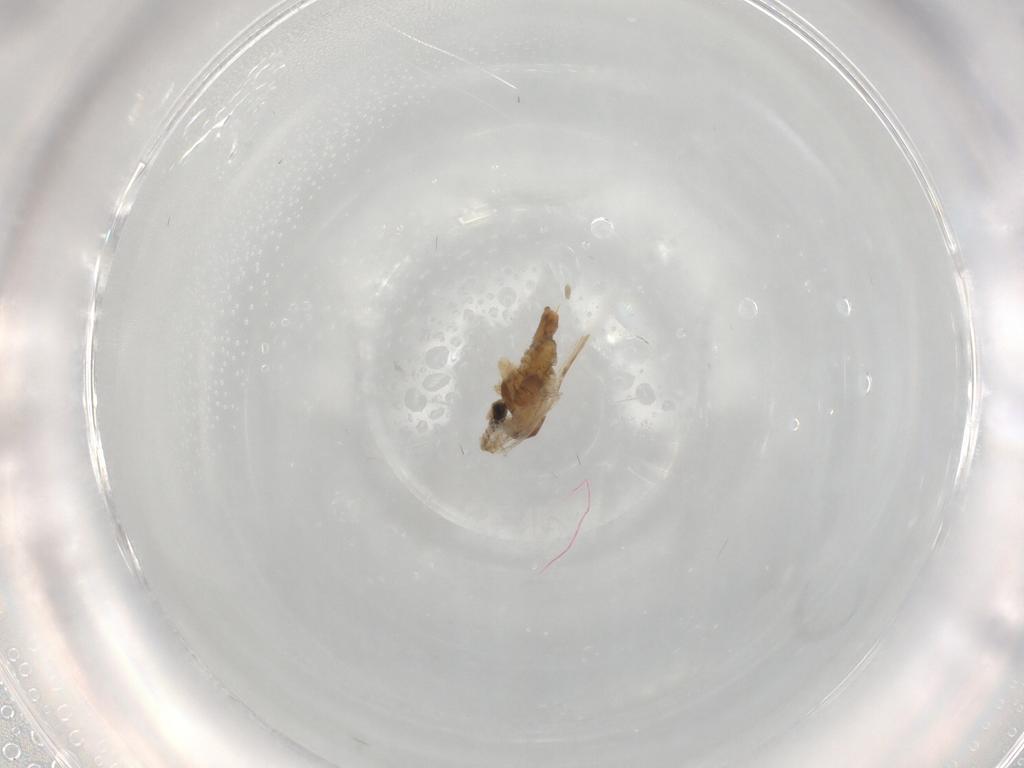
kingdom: Animalia
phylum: Arthropoda
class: Insecta
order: Diptera
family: Cecidomyiidae
